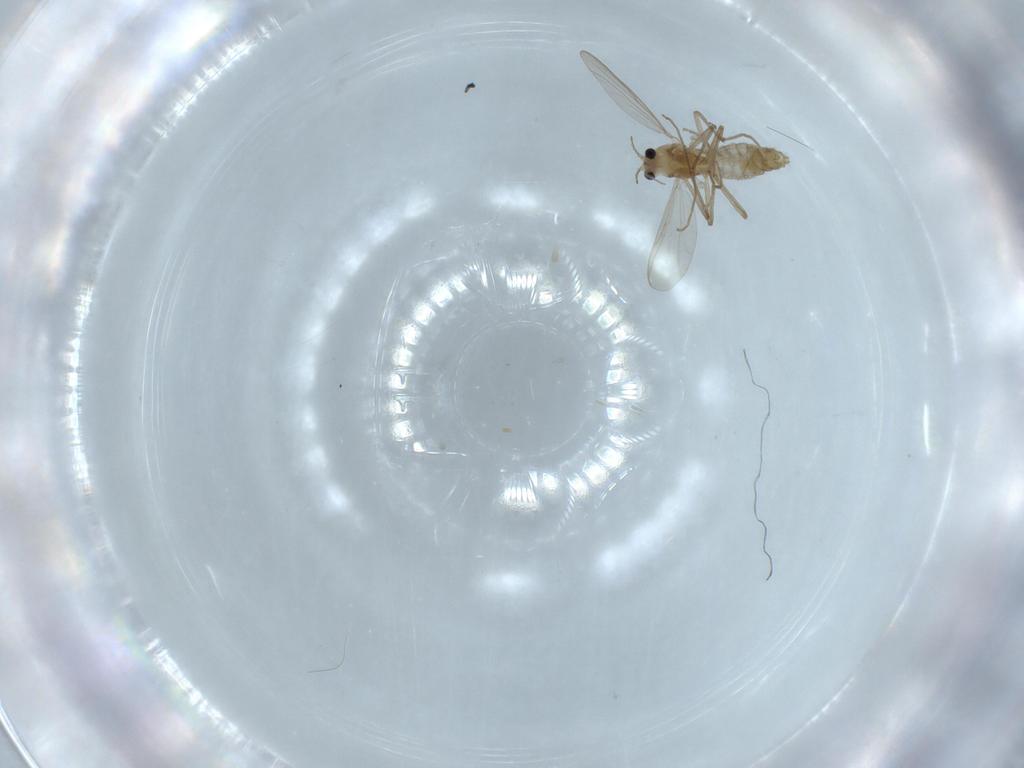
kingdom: Animalia
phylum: Arthropoda
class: Insecta
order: Diptera
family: Chironomidae
